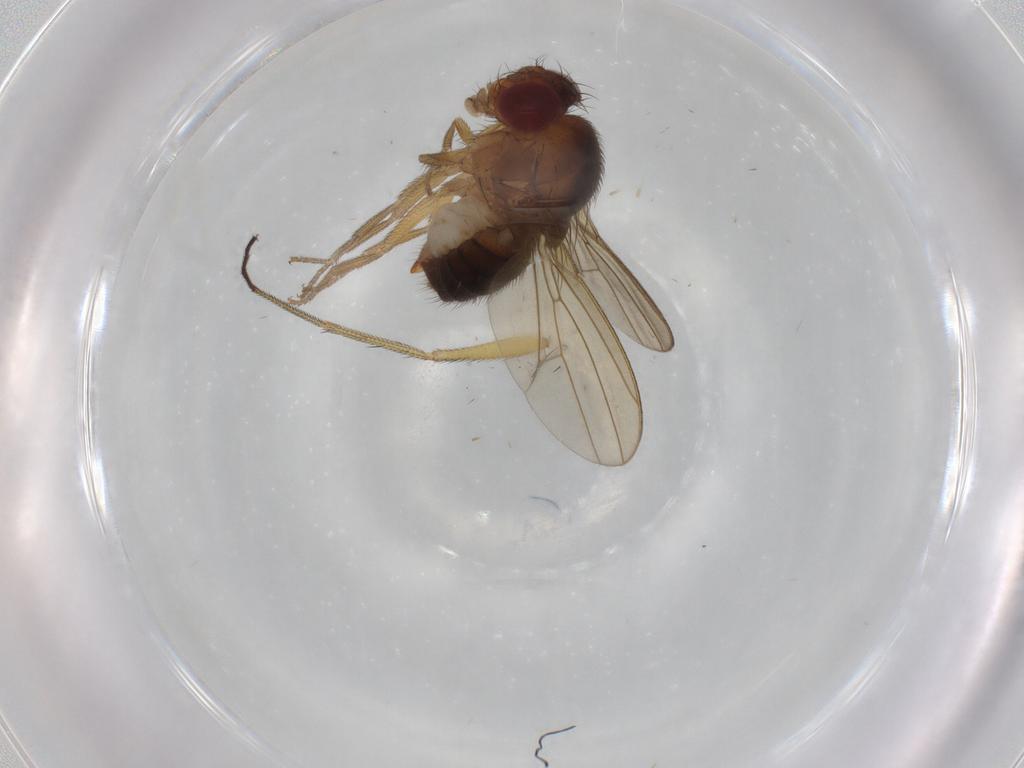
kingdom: Animalia
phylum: Arthropoda
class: Insecta
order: Diptera
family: Drosophilidae
